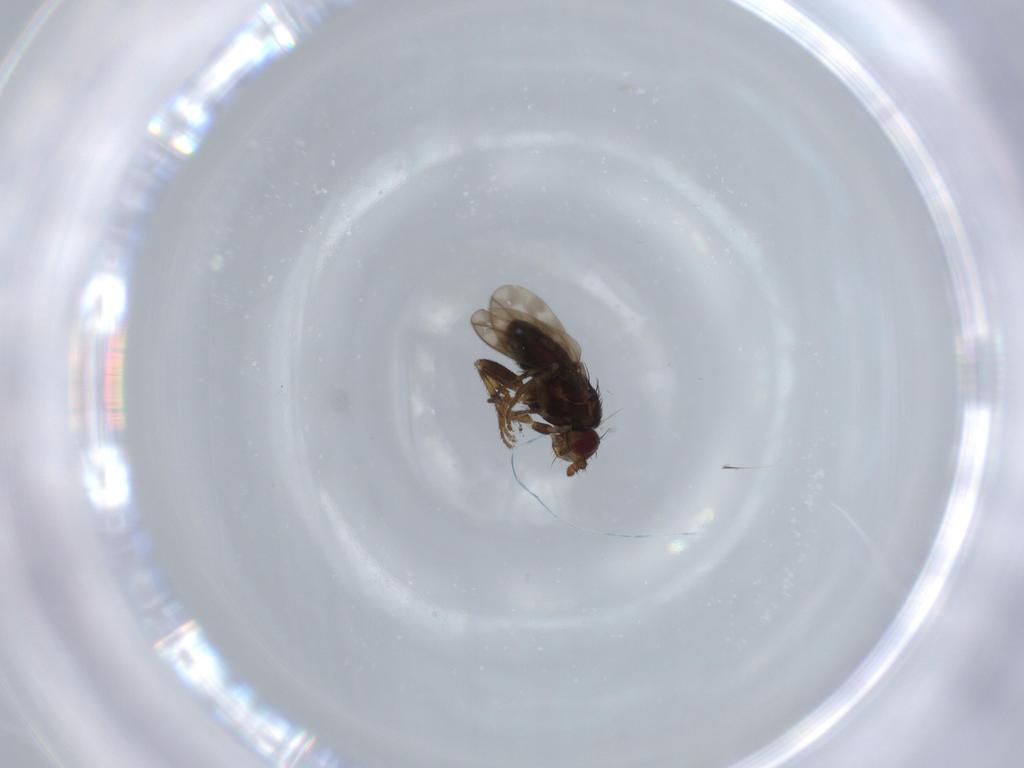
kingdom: Animalia
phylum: Arthropoda
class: Insecta
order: Diptera
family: Sphaeroceridae
